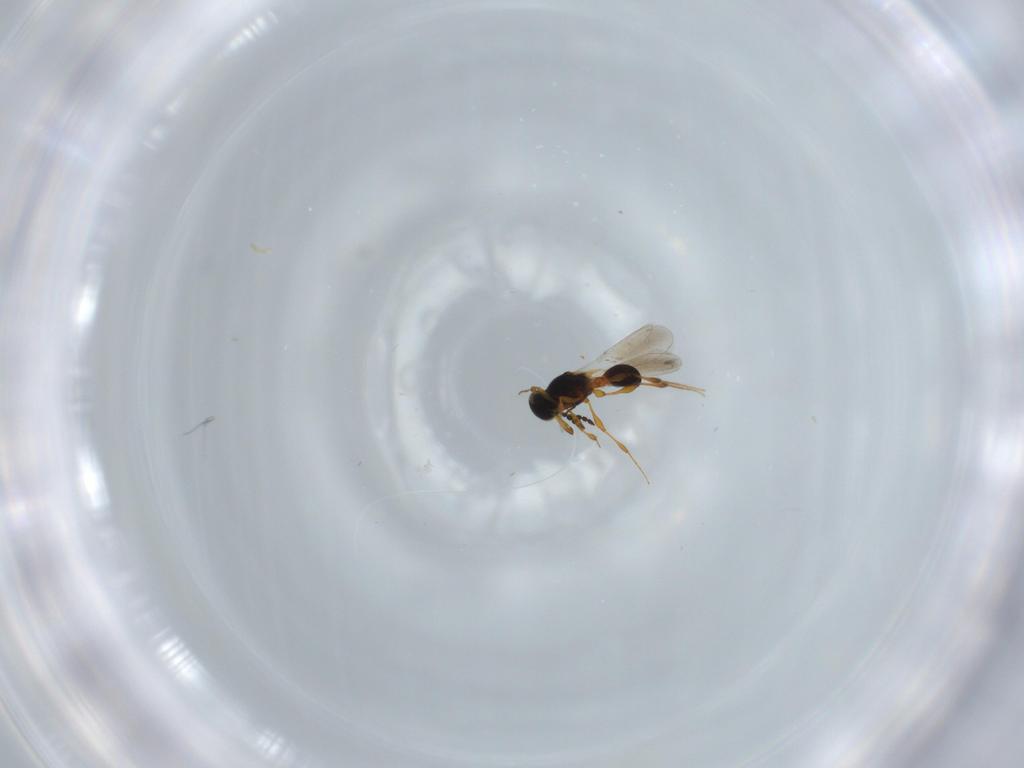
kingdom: Animalia
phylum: Arthropoda
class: Insecta
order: Hymenoptera
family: Platygastridae
